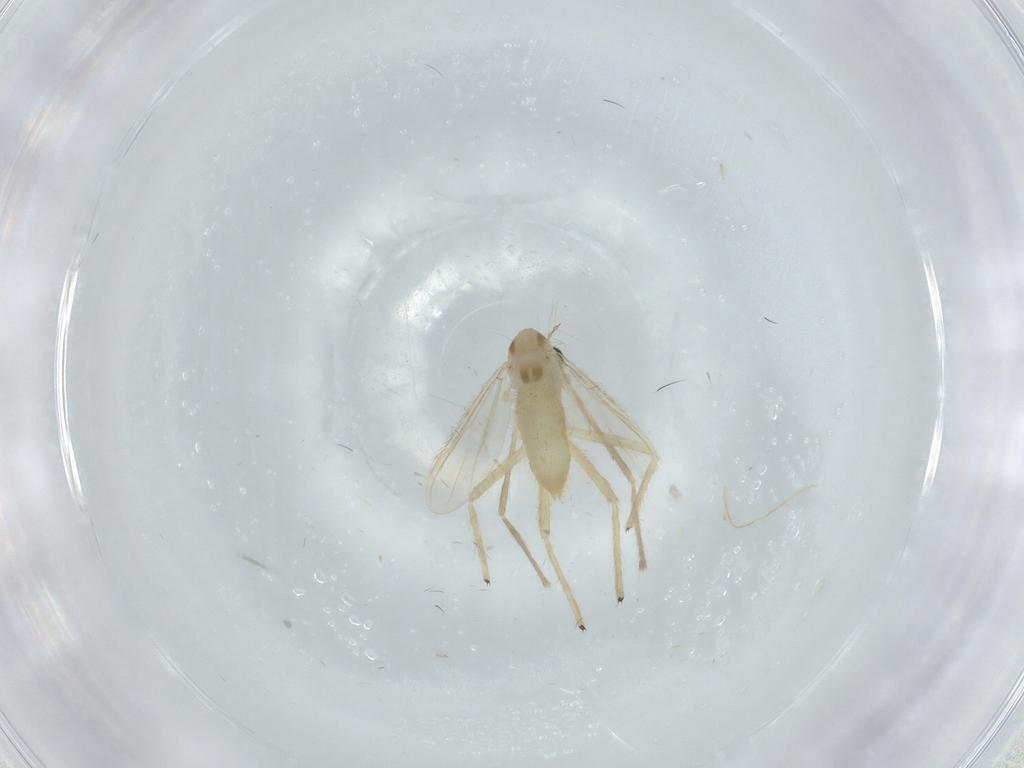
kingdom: Animalia
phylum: Arthropoda
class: Insecta
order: Diptera
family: Chironomidae
